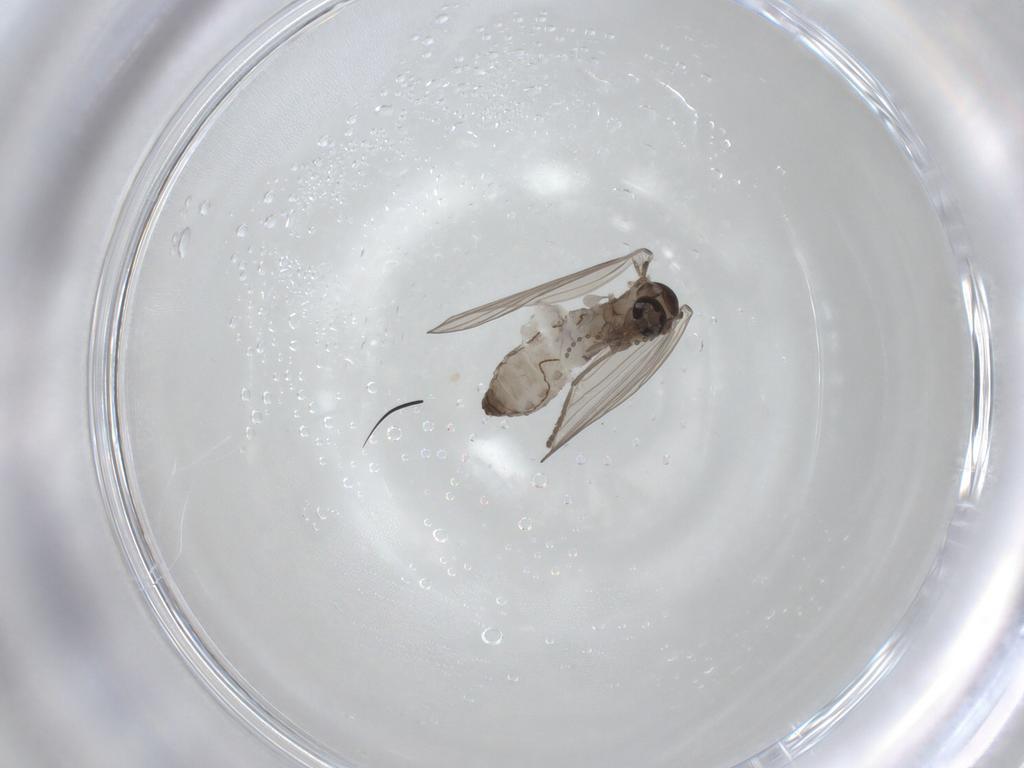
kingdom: Animalia
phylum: Arthropoda
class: Insecta
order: Diptera
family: Psychodidae
